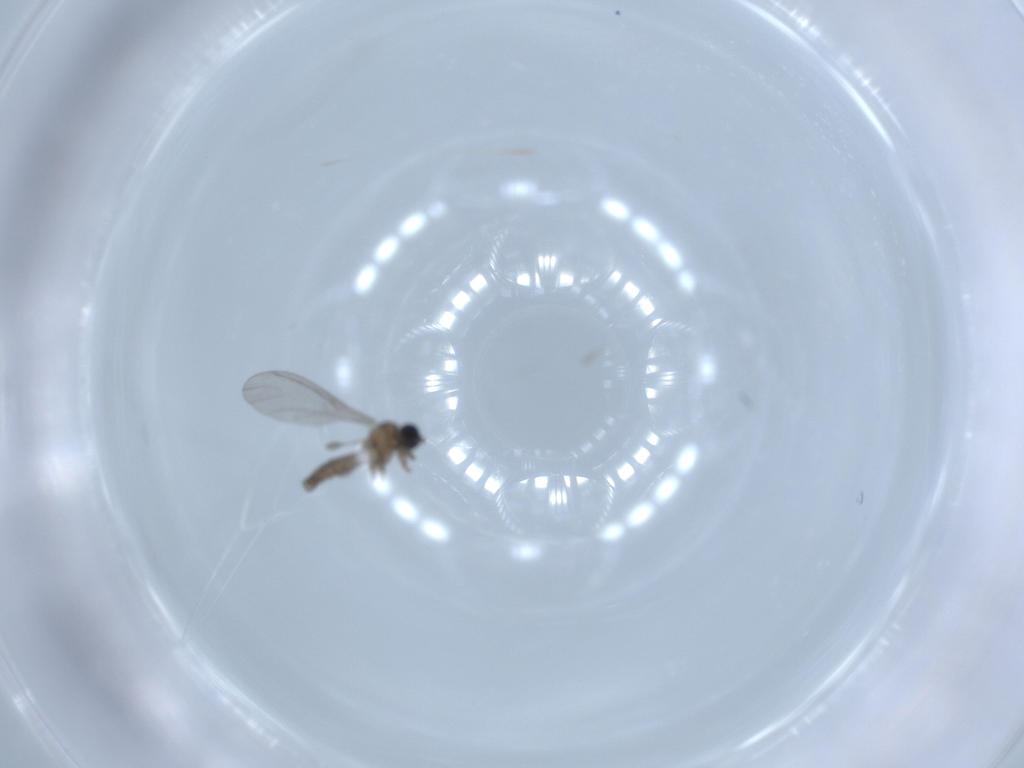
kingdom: Animalia
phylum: Arthropoda
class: Insecta
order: Diptera
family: Sciaridae
